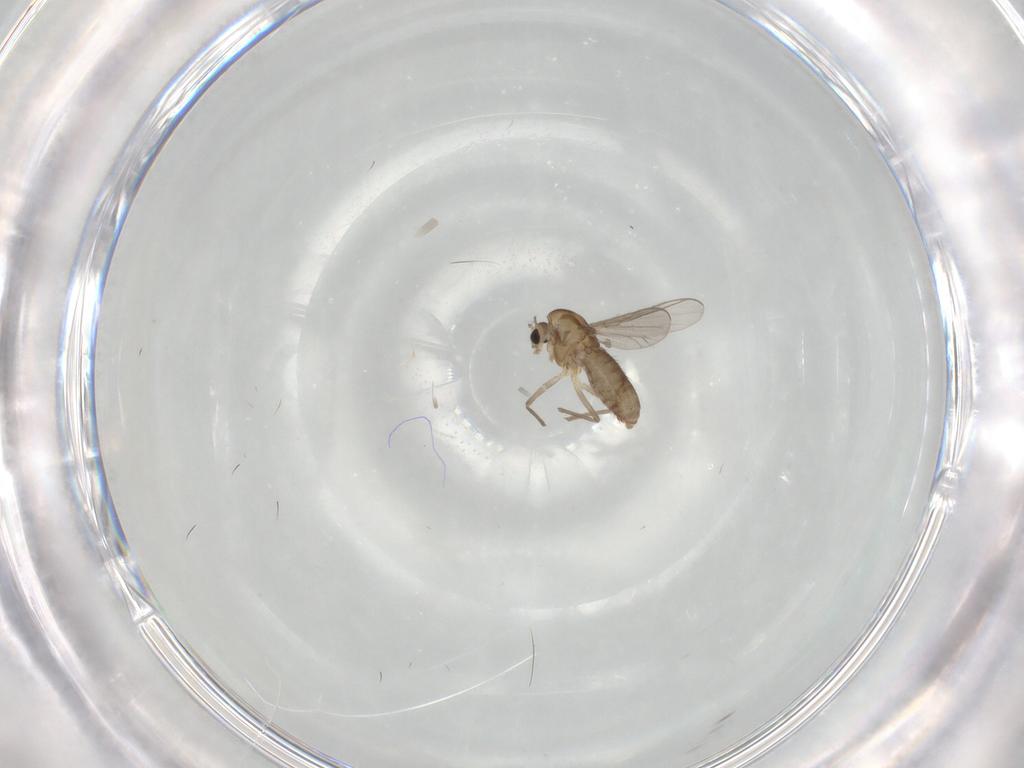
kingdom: Animalia
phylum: Arthropoda
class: Insecta
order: Diptera
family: Chironomidae
